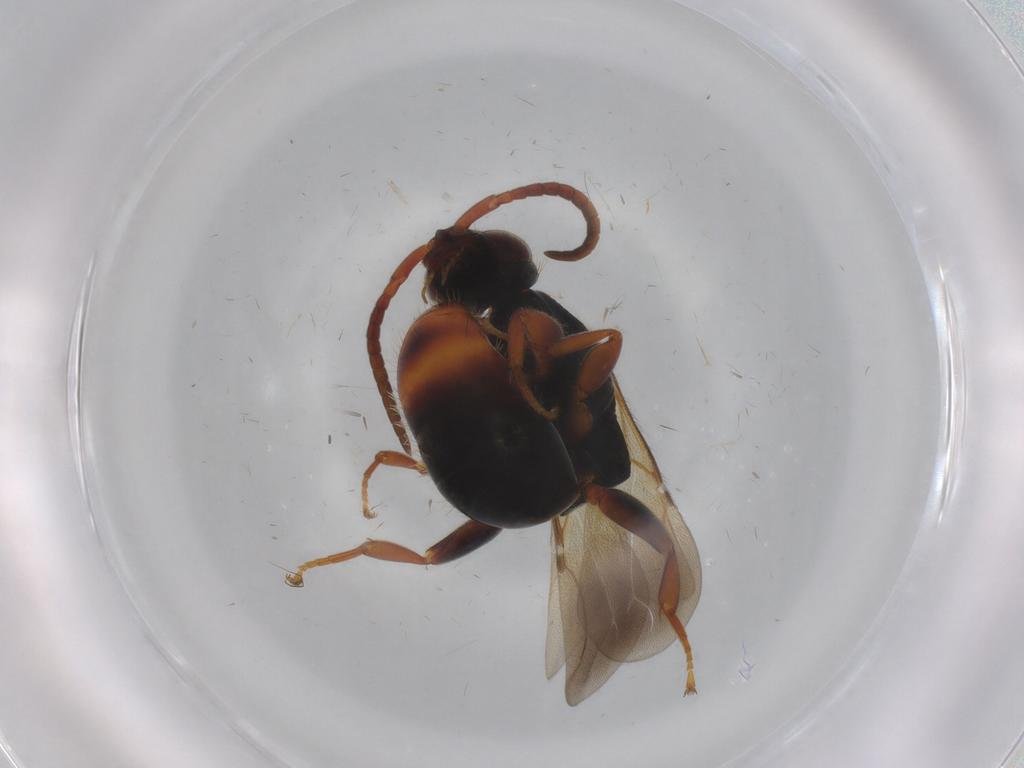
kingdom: Animalia
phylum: Arthropoda
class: Insecta
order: Hymenoptera
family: Bethylidae
